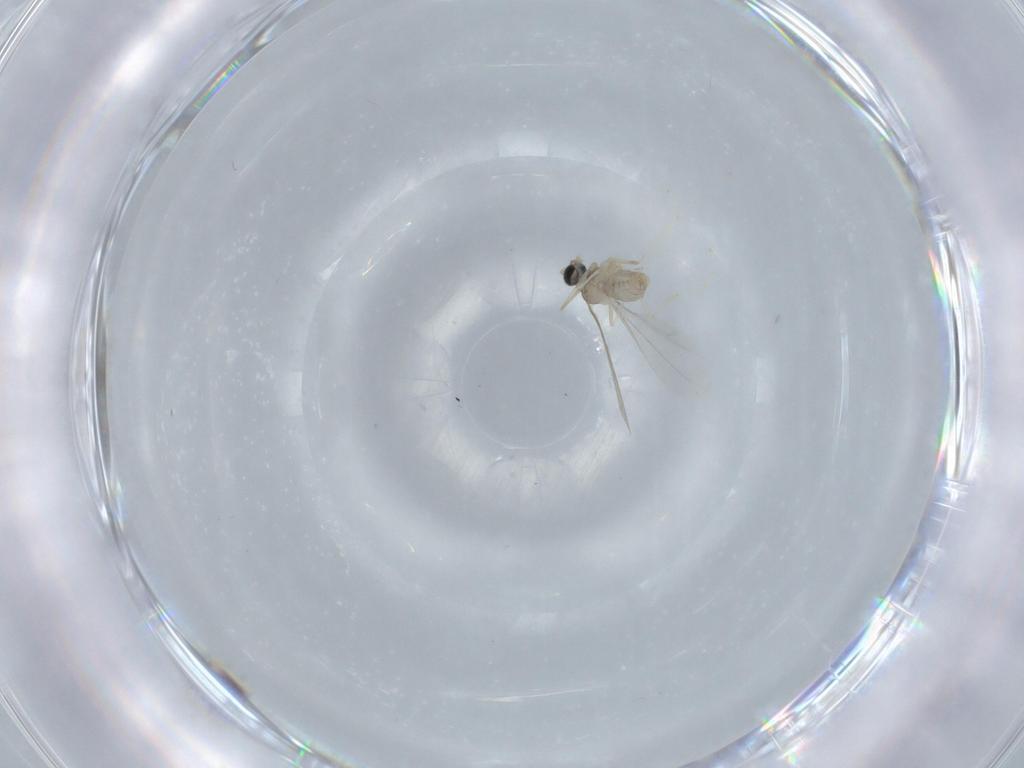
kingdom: Animalia
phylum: Arthropoda
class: Insecta
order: Diptera
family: Cecidomyiidae
